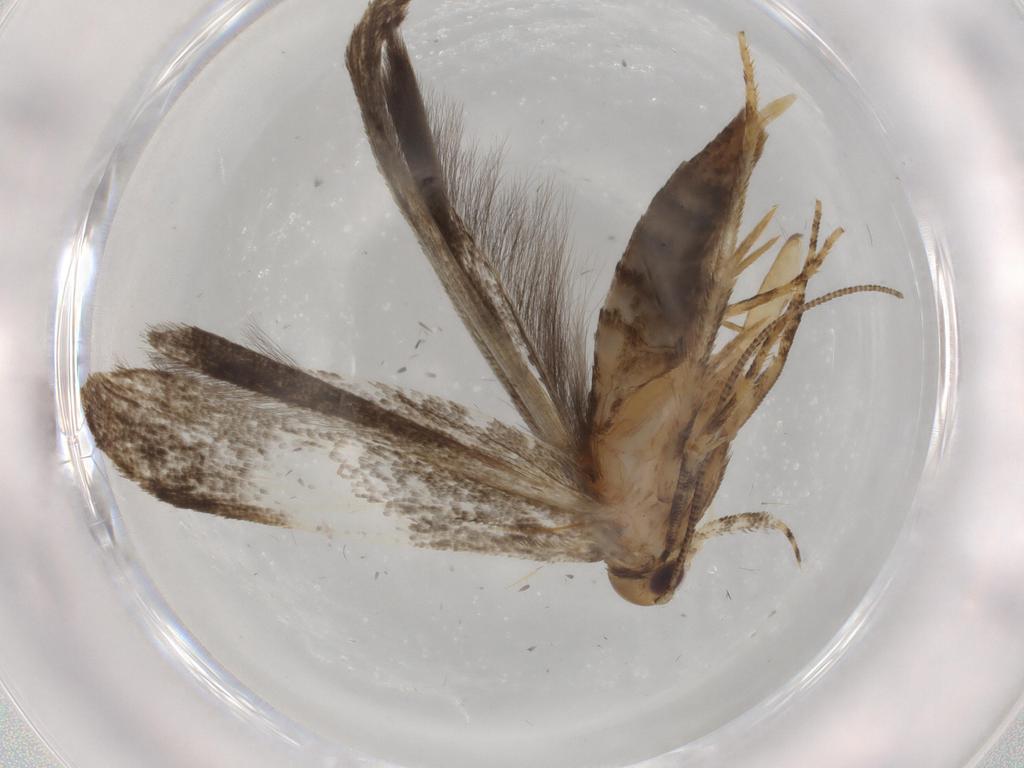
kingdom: Animalia
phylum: Arthropoda
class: Insecta
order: Lepidoptera
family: Gelechiidae
